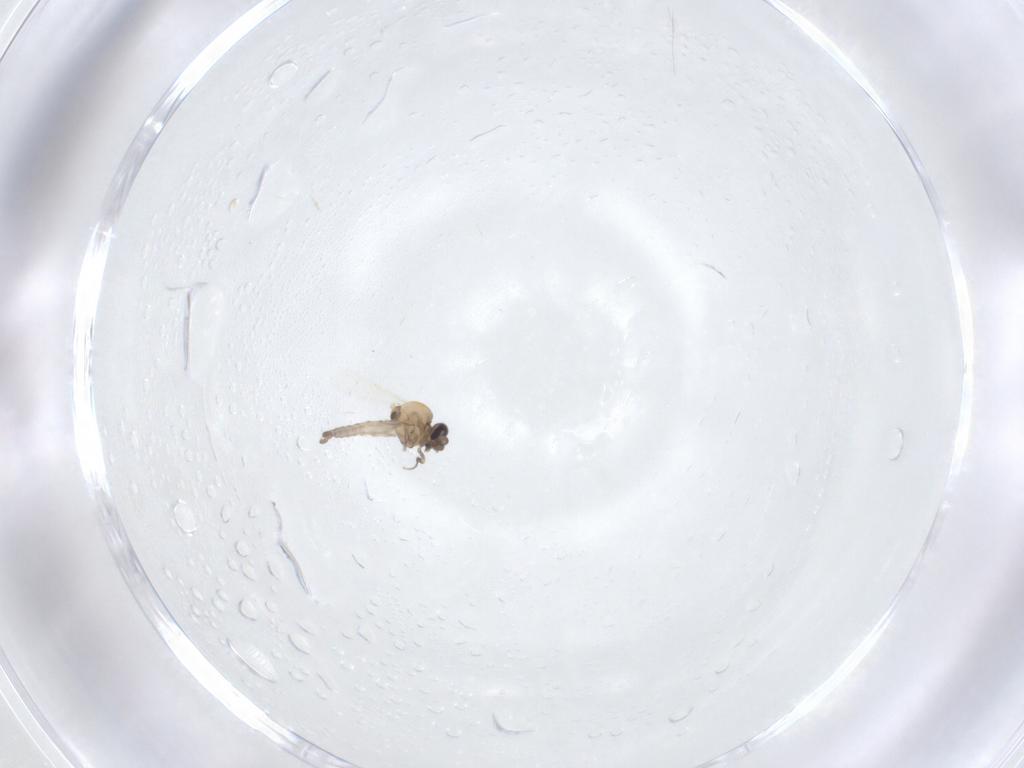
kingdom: Animalia
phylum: Arthropoda
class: Insecta
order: Diptera
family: Ceratopogonidae
